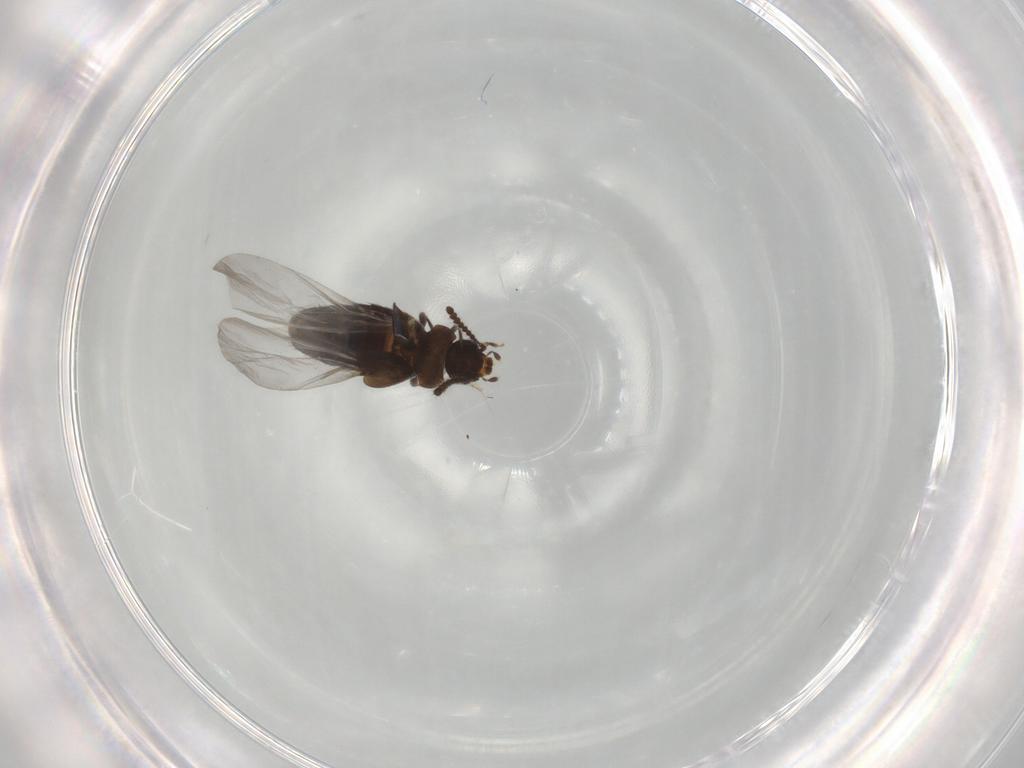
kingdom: Animalia
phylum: Arthropoda
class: Insecta
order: Coleoptera
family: Staphylinidae
